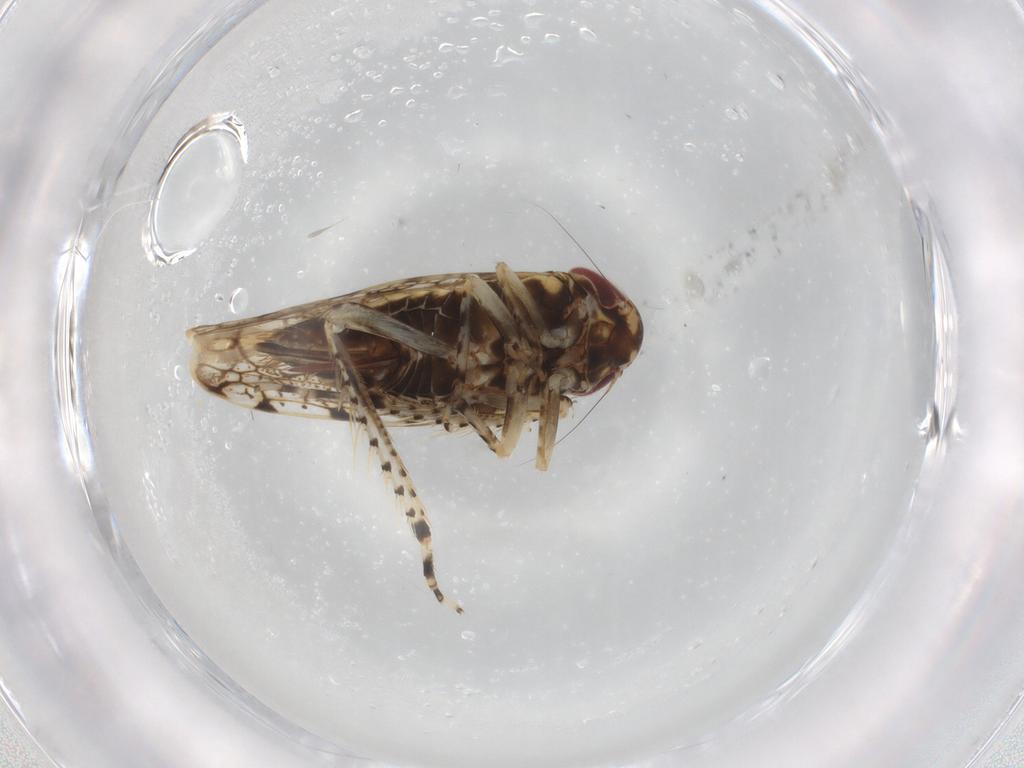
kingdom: Animalia
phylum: Arthropoda
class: Insecta
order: Hemiptera
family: Cicadellidae
